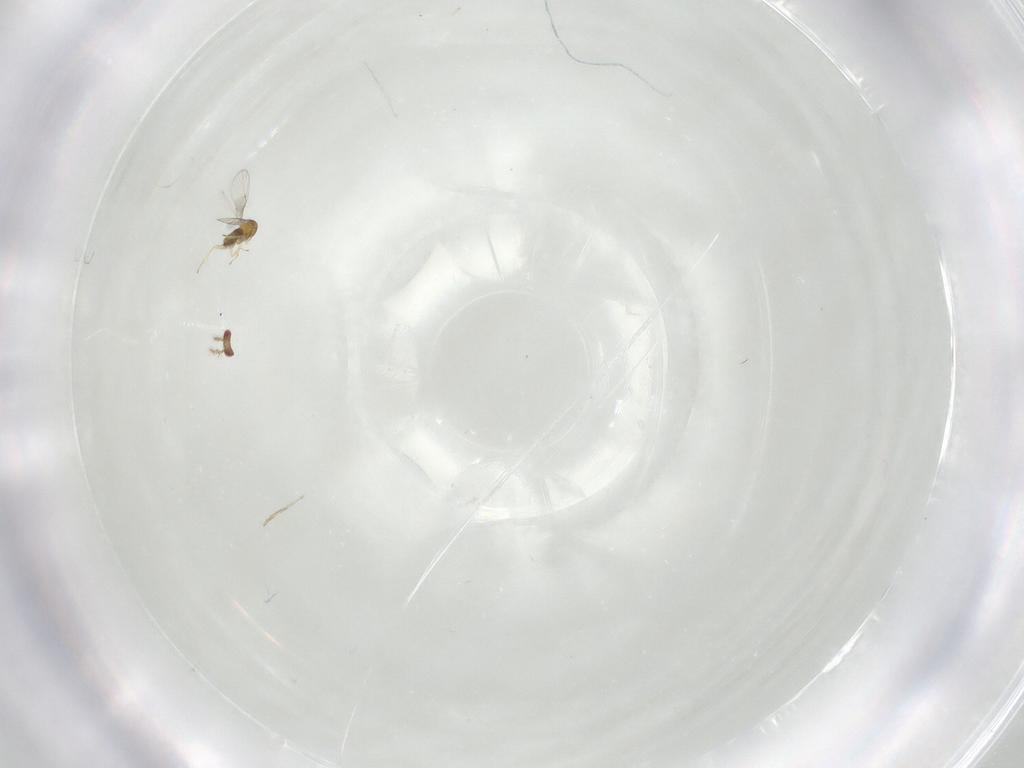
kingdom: Animalia
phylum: Arthropoda
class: Insecta
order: Hymenoptera
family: Trichogrammatidae
